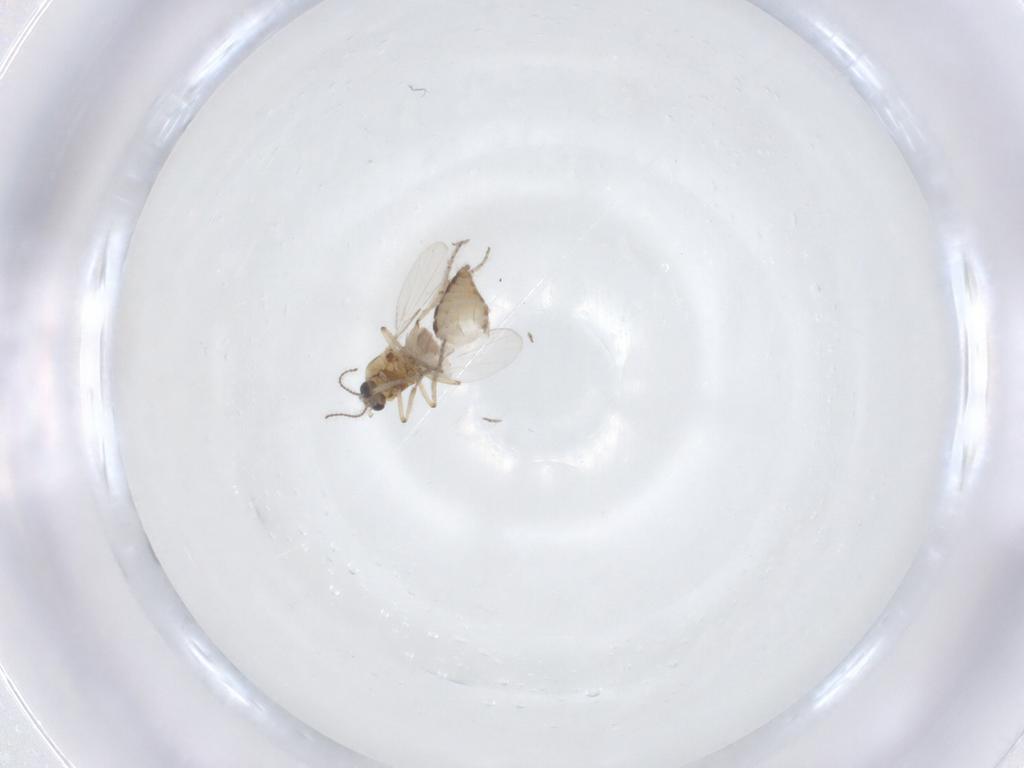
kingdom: Animalia
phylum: Arthropoda
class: Insecta
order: Diptera
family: Ceratopogonidae
